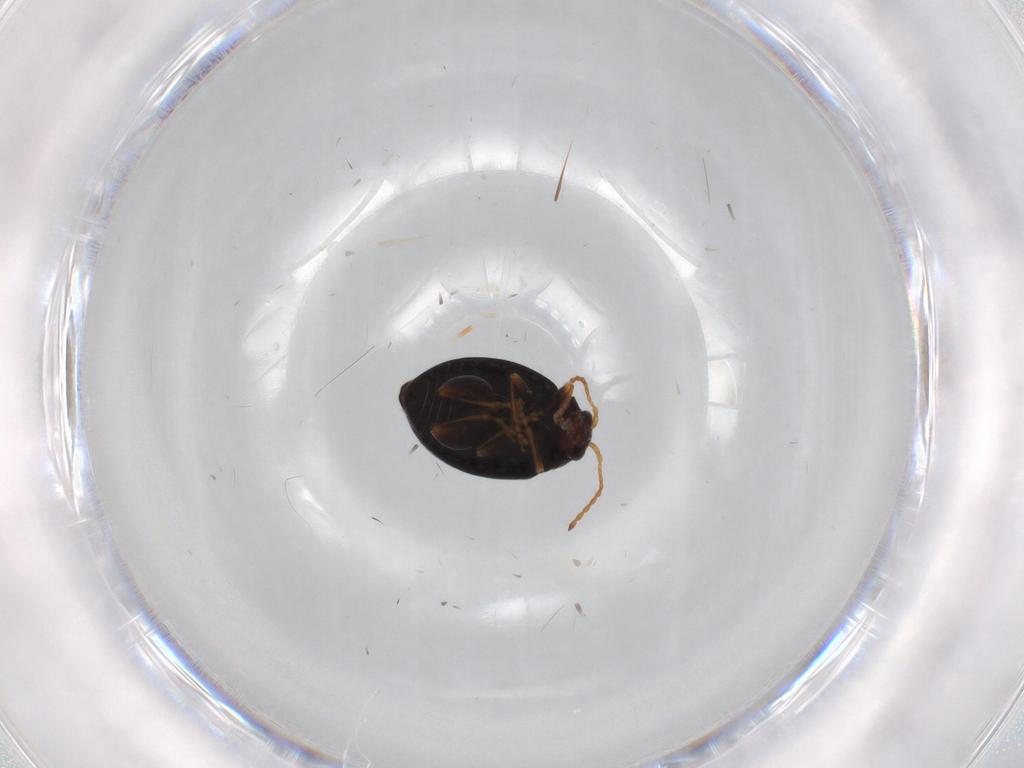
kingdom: Animalia
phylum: Arthropoda
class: Insecta
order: Coleoptera
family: Brentidae
